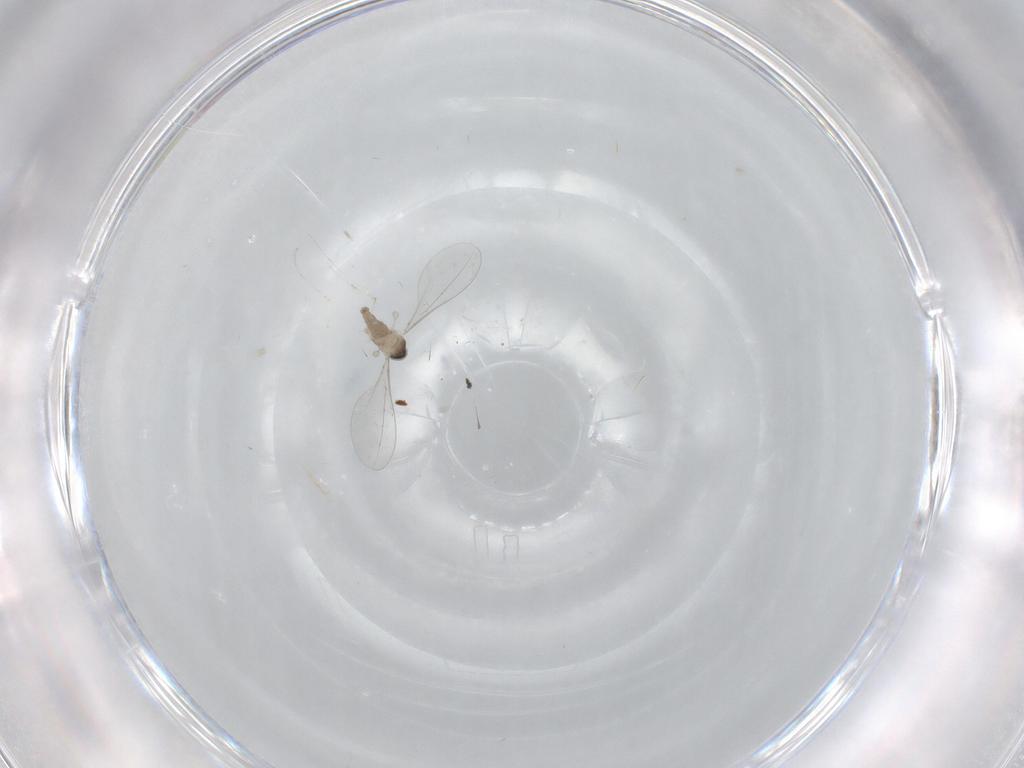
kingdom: Animalia
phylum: Arthropoda
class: Insecta
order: Diptera
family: Cecidomyiidae
